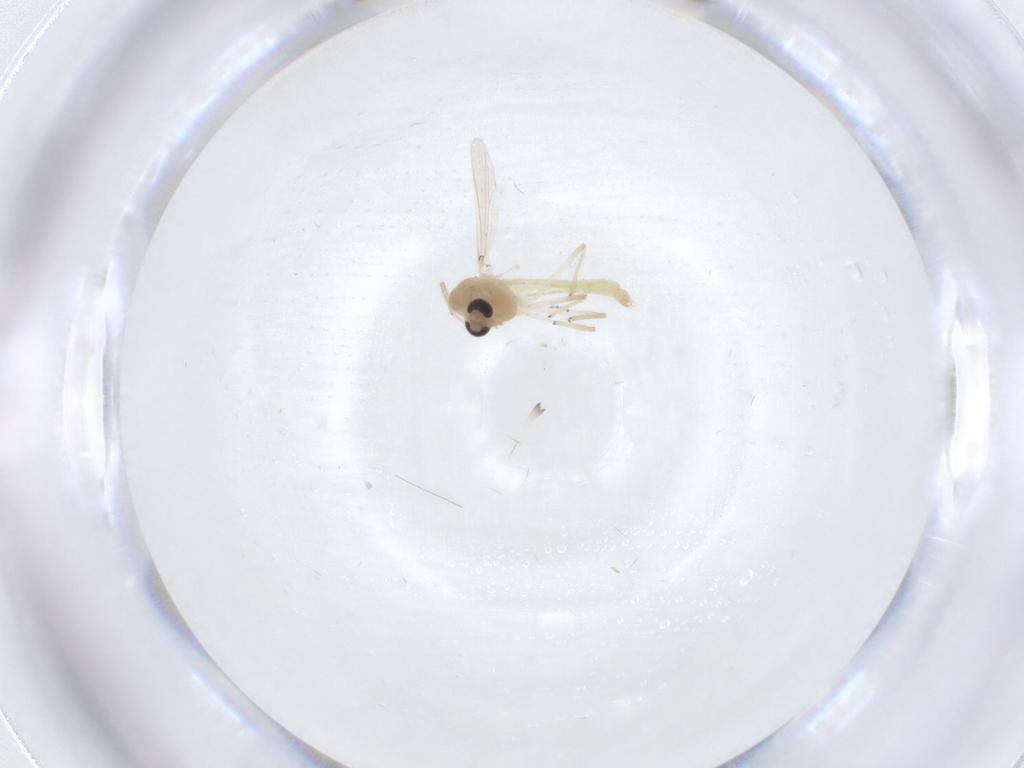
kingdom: Animalia
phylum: Arthropoda
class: Insecta
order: Diptera
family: Chironomidae
